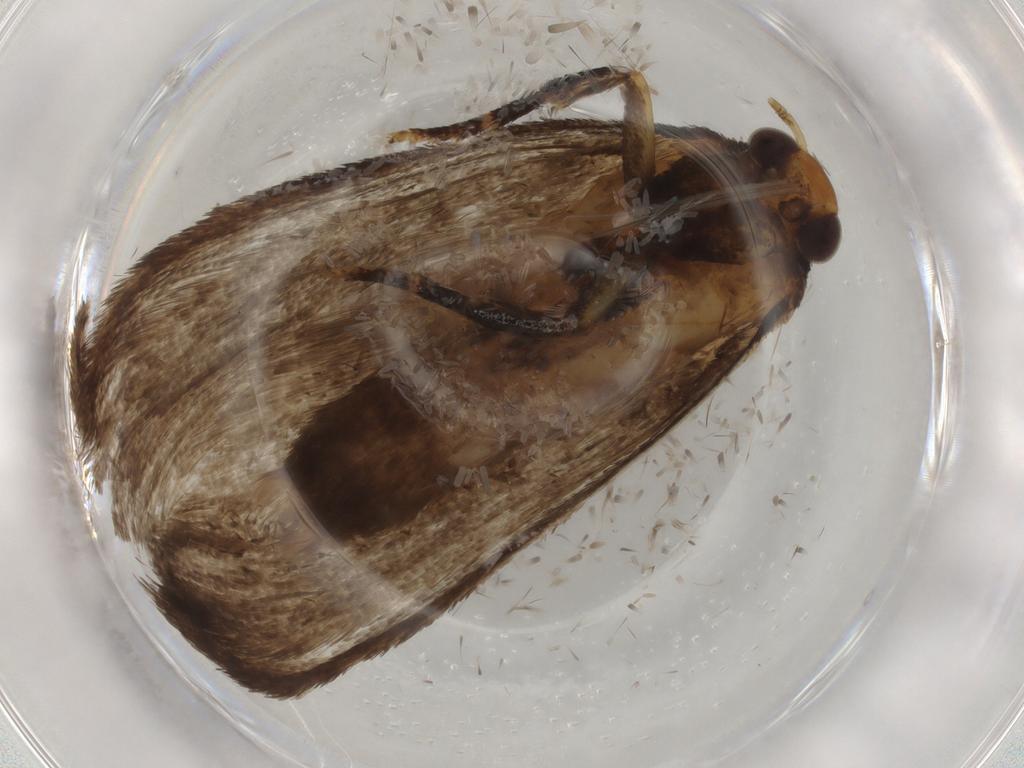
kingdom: Animalia
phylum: Arthropoda
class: Insecta
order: Lepidoptera
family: Oecophoridae
